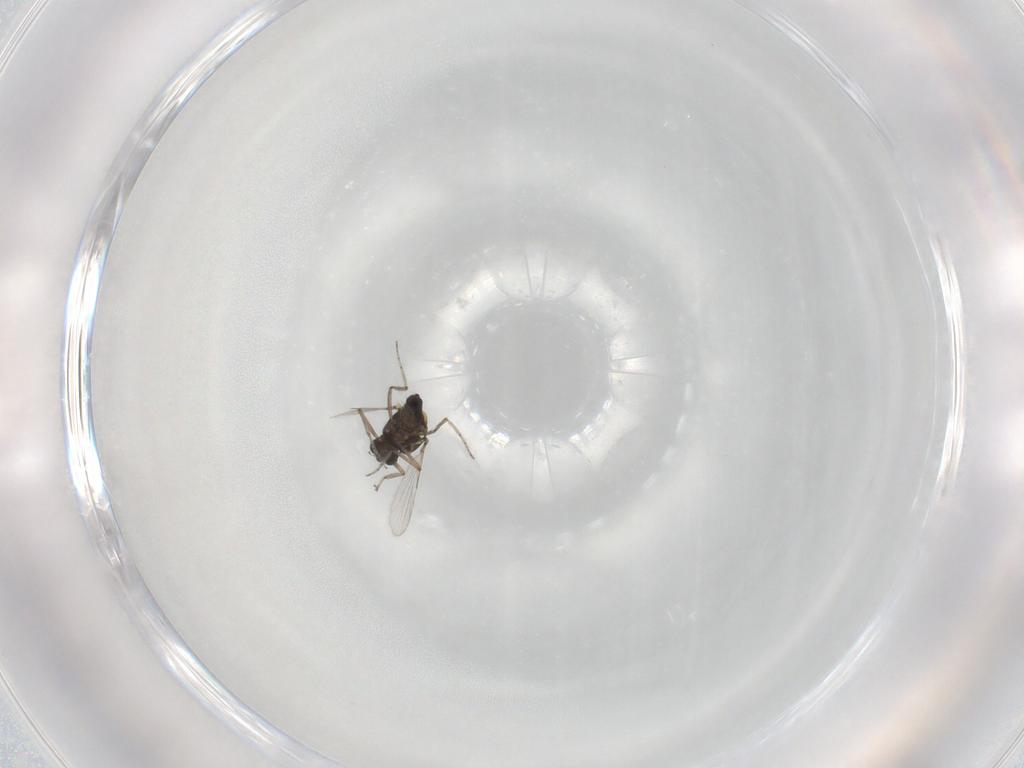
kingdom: Animalia
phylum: Arthropoda
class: Insecta
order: Diptera
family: Ceratopogonidae
